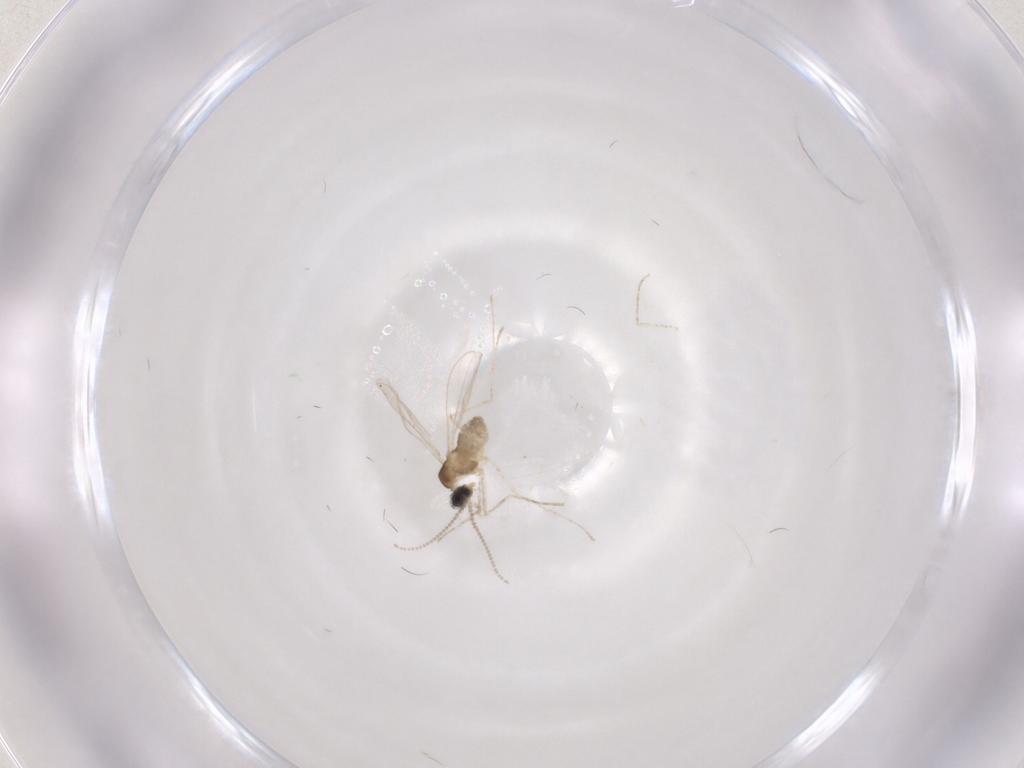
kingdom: Animalia
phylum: Arthropoda
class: Insecta
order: Diptera
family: Cecidomyiidae
